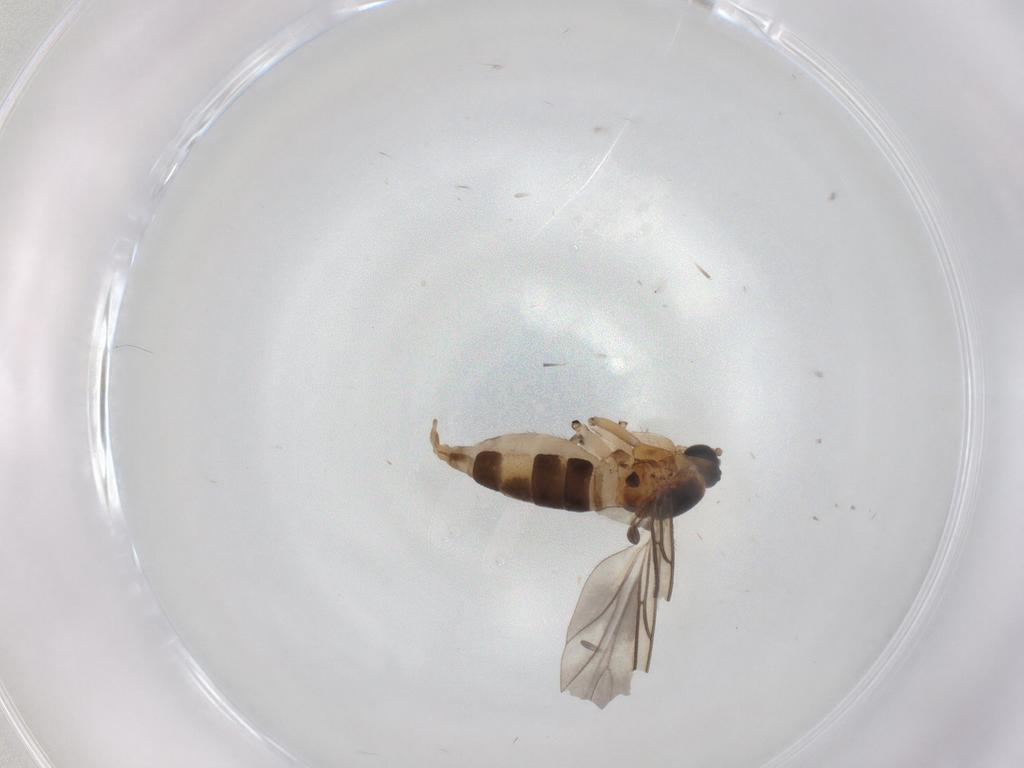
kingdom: Animalia
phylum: Arthropoda
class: Insecta
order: Diptera
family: Sciaridae
